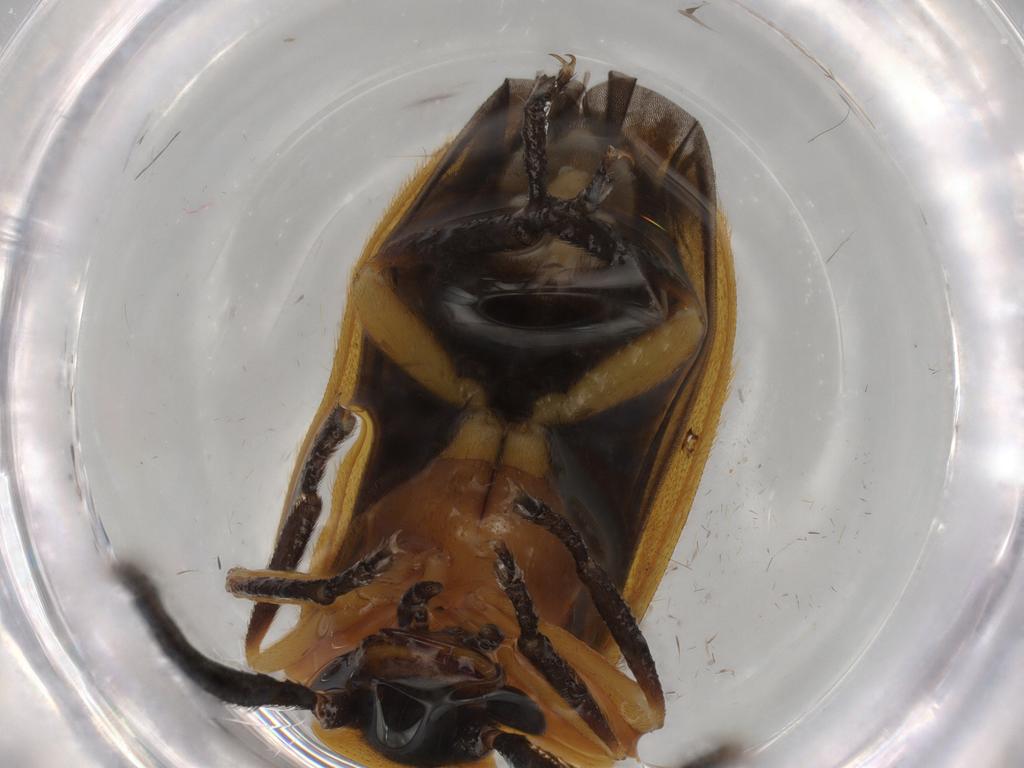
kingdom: Animalia
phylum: Arthropoda
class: Insecta
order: Coleoptera
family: Lampyridae
